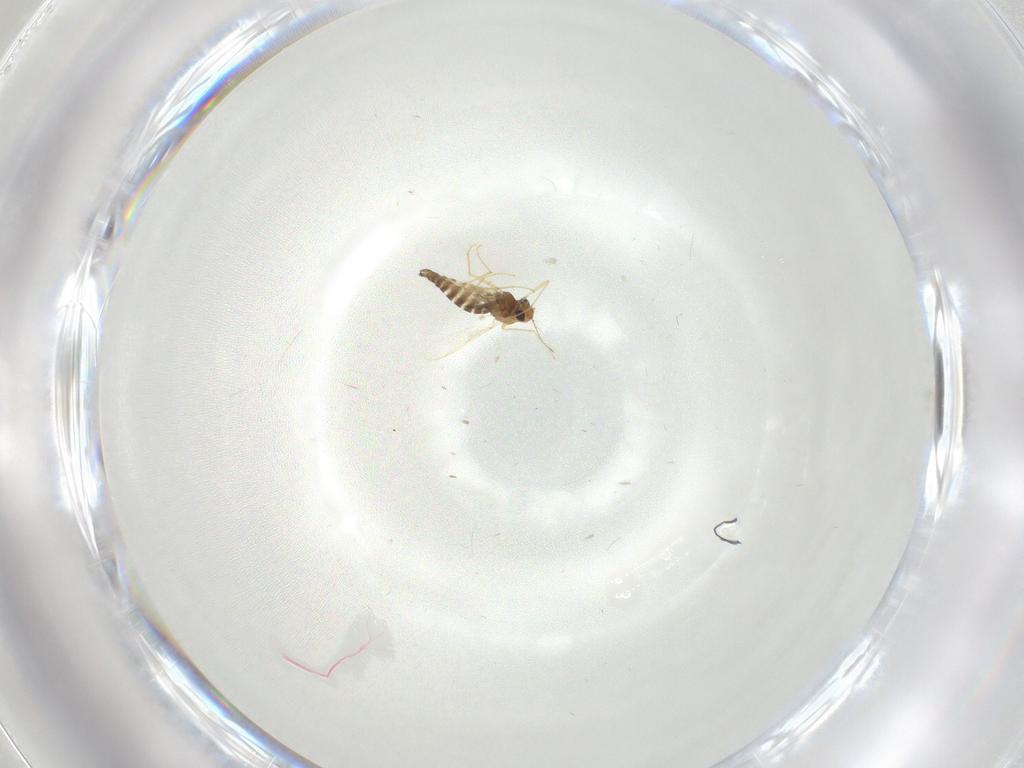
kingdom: Animalia
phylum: Arthropoda
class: Insecta
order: Diptera
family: Chironomidae
